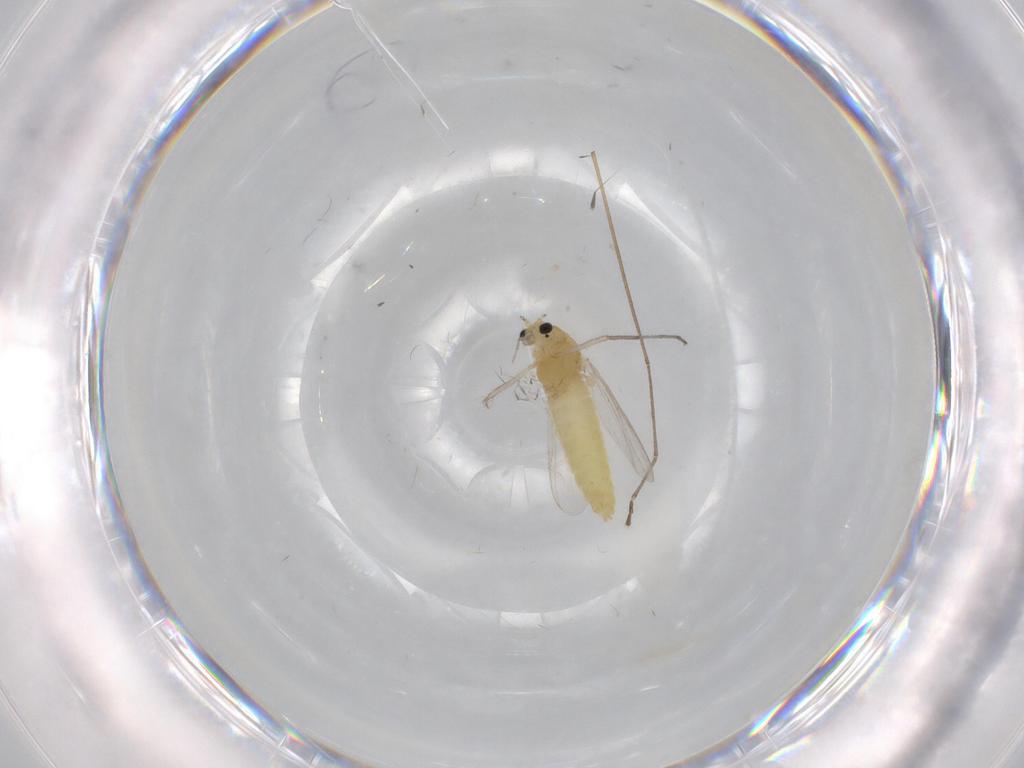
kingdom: Animalia
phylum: Arthropoda
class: Insecta
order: Diptera
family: Chironomidae
